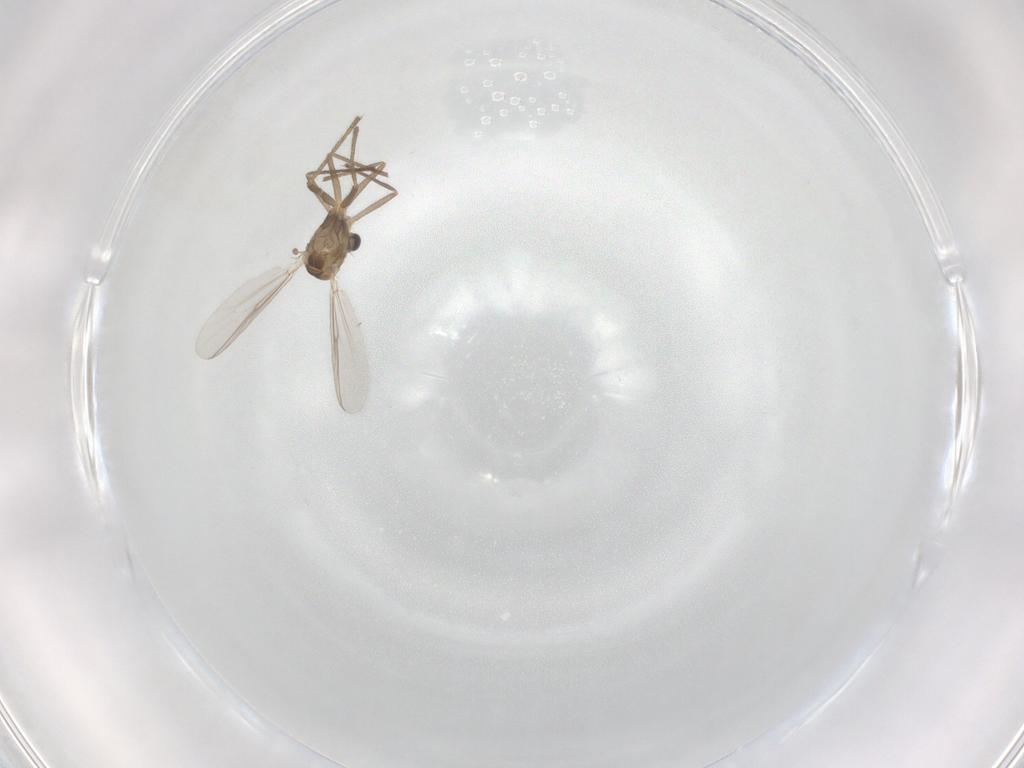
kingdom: Animalia
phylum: Arthropoda
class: Insecta
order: Diptera
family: Chironomidae
